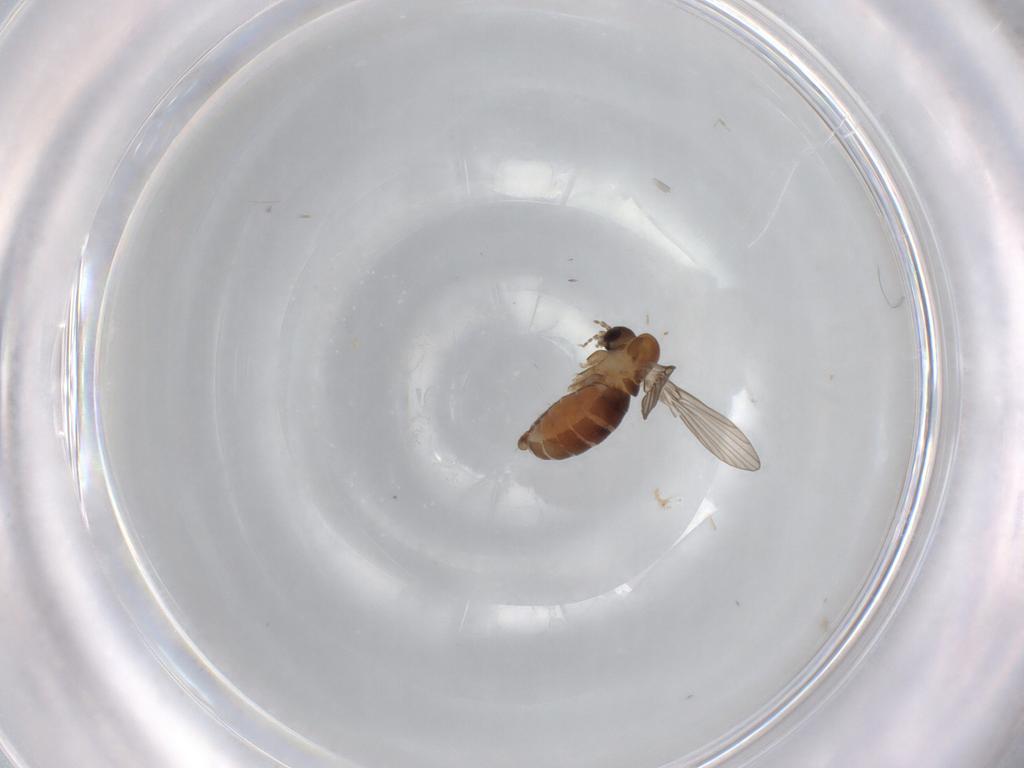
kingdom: Animalia
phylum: Arthropoda
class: Insecta
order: Diptera
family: Psychodidae
